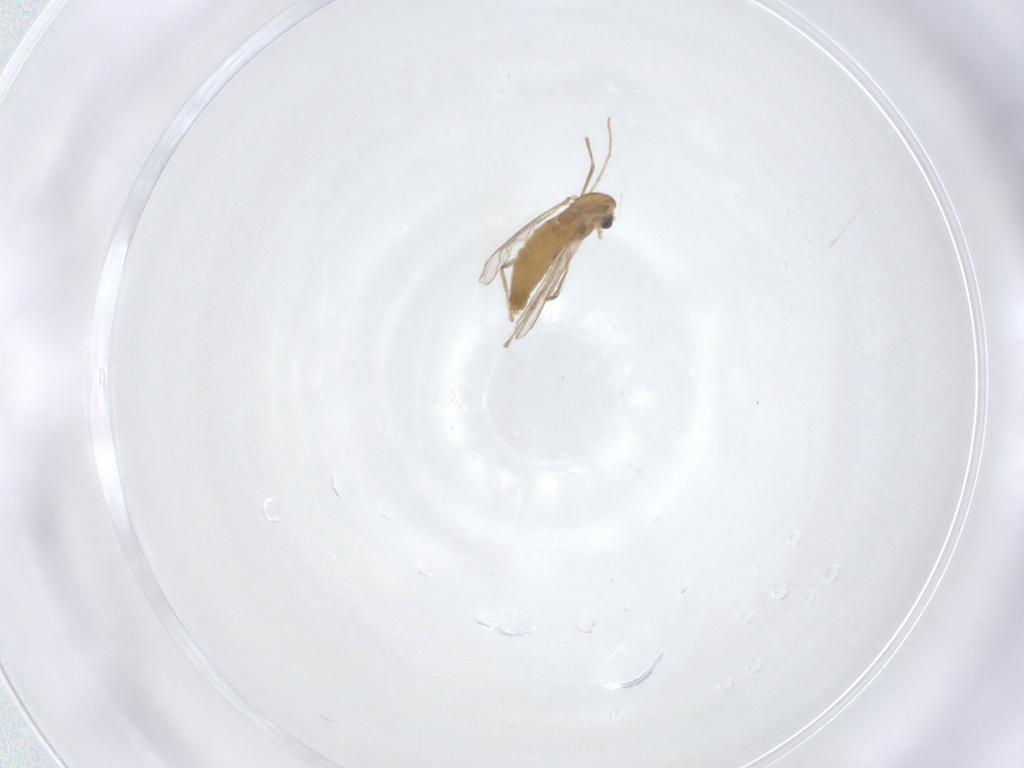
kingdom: Animalia
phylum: Arthropoda
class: Insecta
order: Diptera
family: Chironomidae
